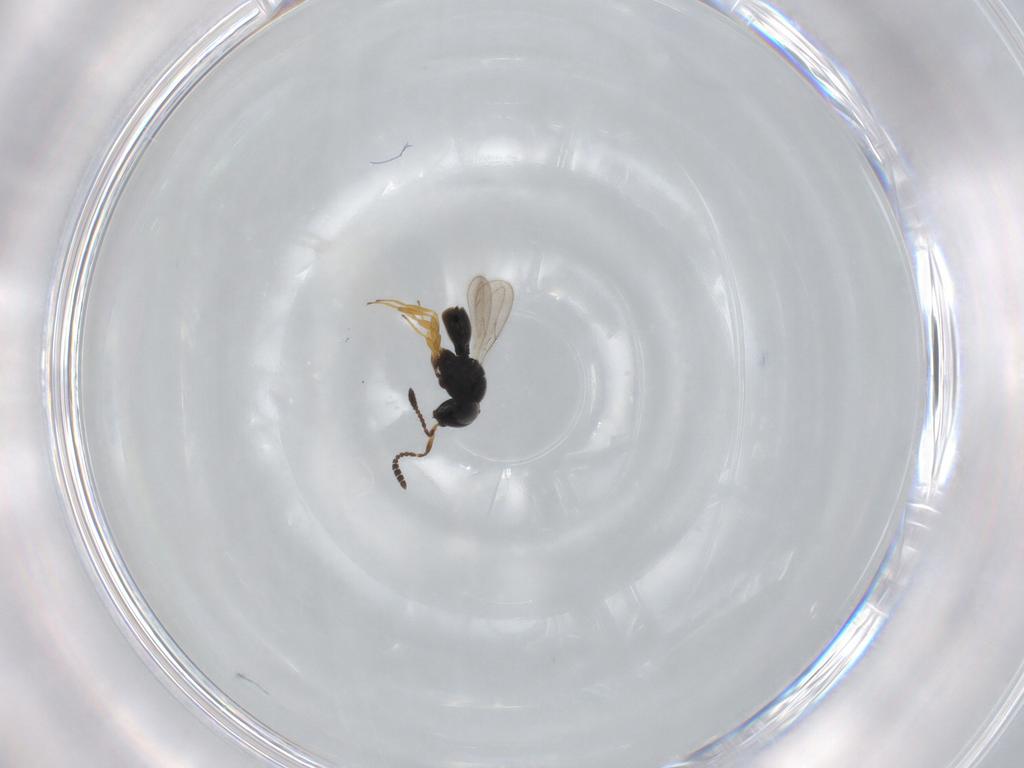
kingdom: Animalia
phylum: Arthropoda
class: Insecta
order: Hymenoptera
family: Scelionidae
